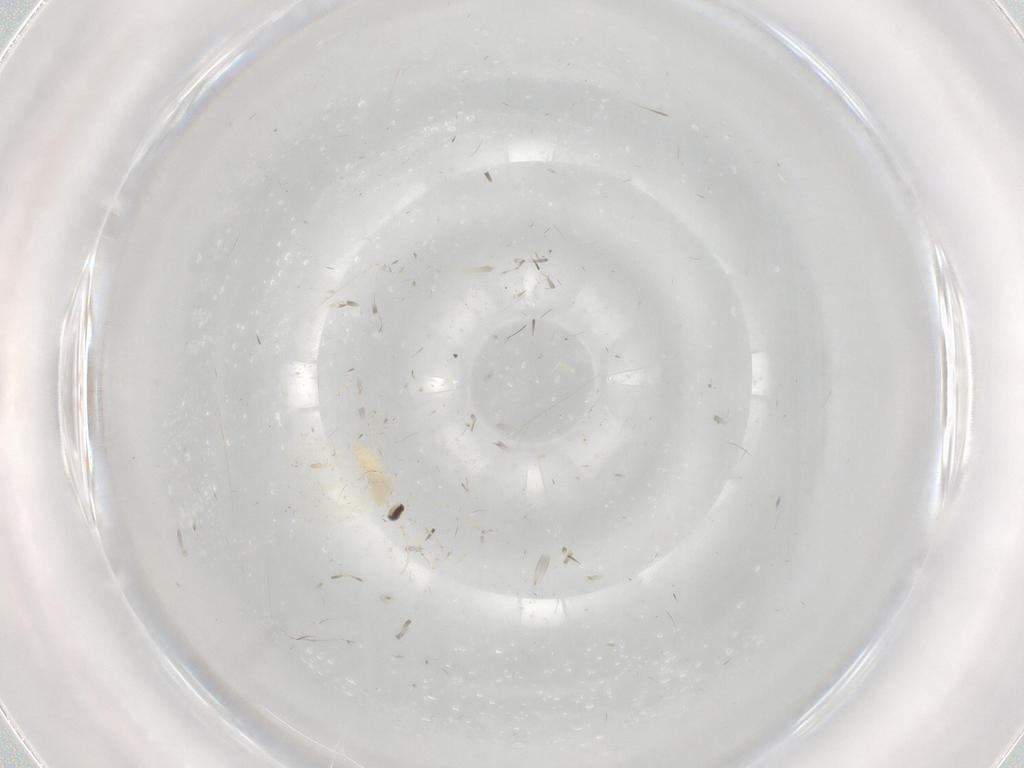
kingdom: Animalia
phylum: Arthropoda
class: Insecta
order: Diptera
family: Cecidomyiidae
